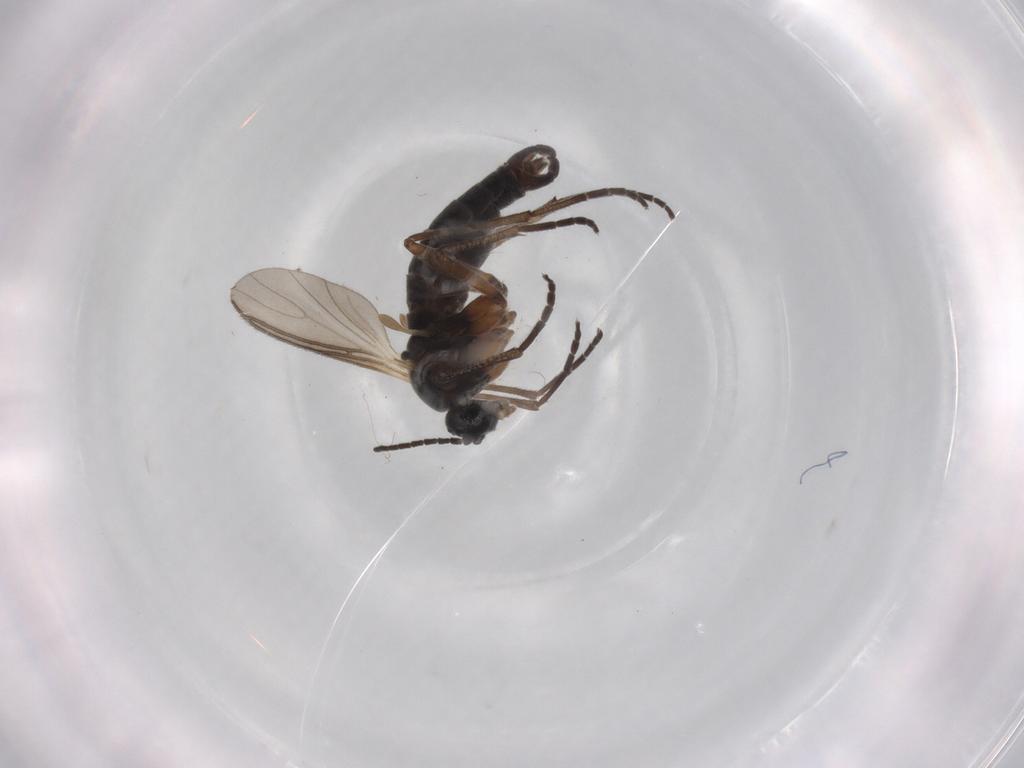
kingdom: Animalia
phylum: Arthropoda
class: Insecta
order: Diptera
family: Sciaridae
